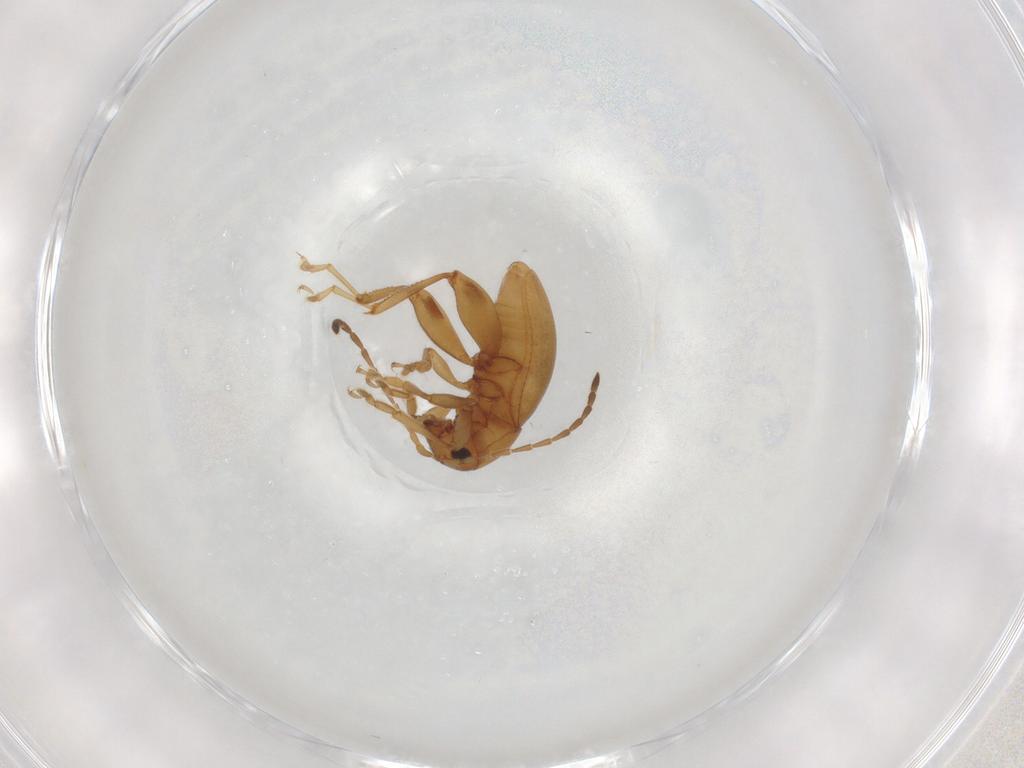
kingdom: Animalia
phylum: Arthropoda
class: Insecta
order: Coleoptera
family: Chrysomelidae
